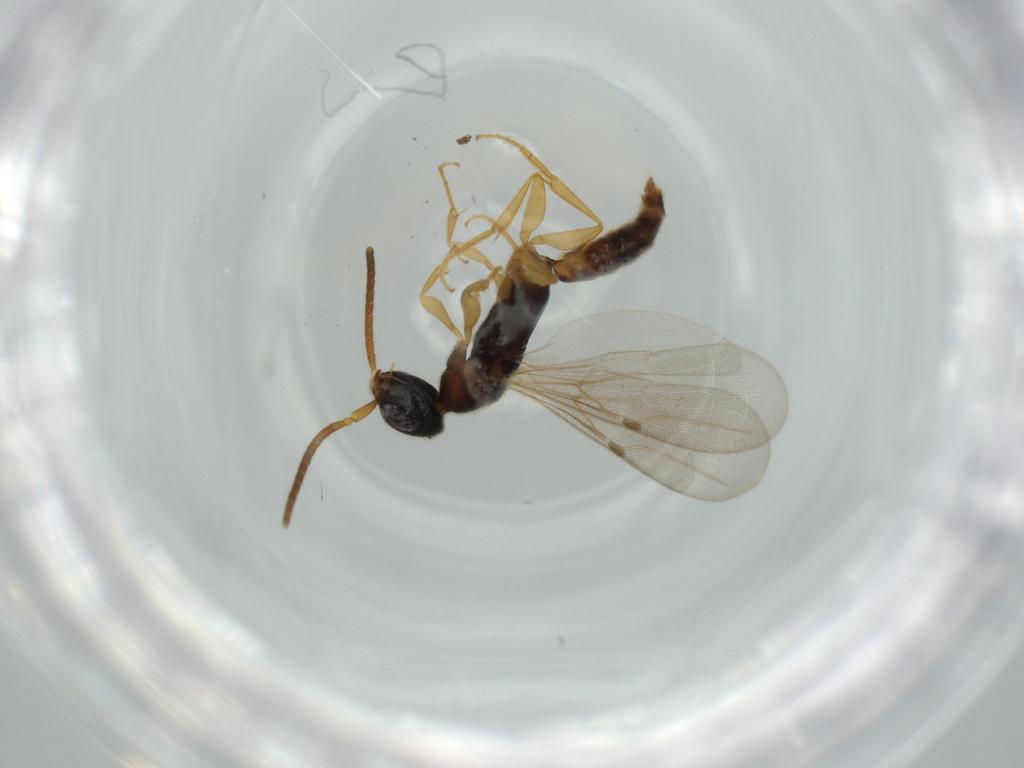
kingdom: Animalia
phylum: Arthropoda
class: Insecta
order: Hymenoptera
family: Bethylidae
